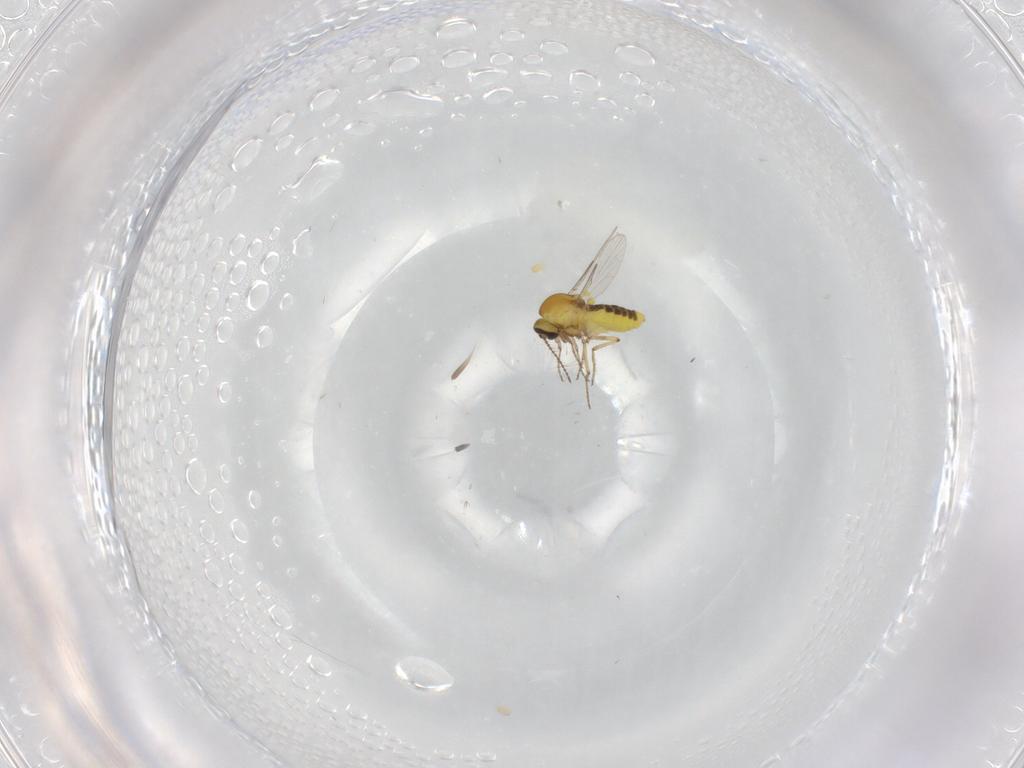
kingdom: Animalia
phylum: Arthropoda
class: Insecta
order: Diptera
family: Ceratopogonidae
